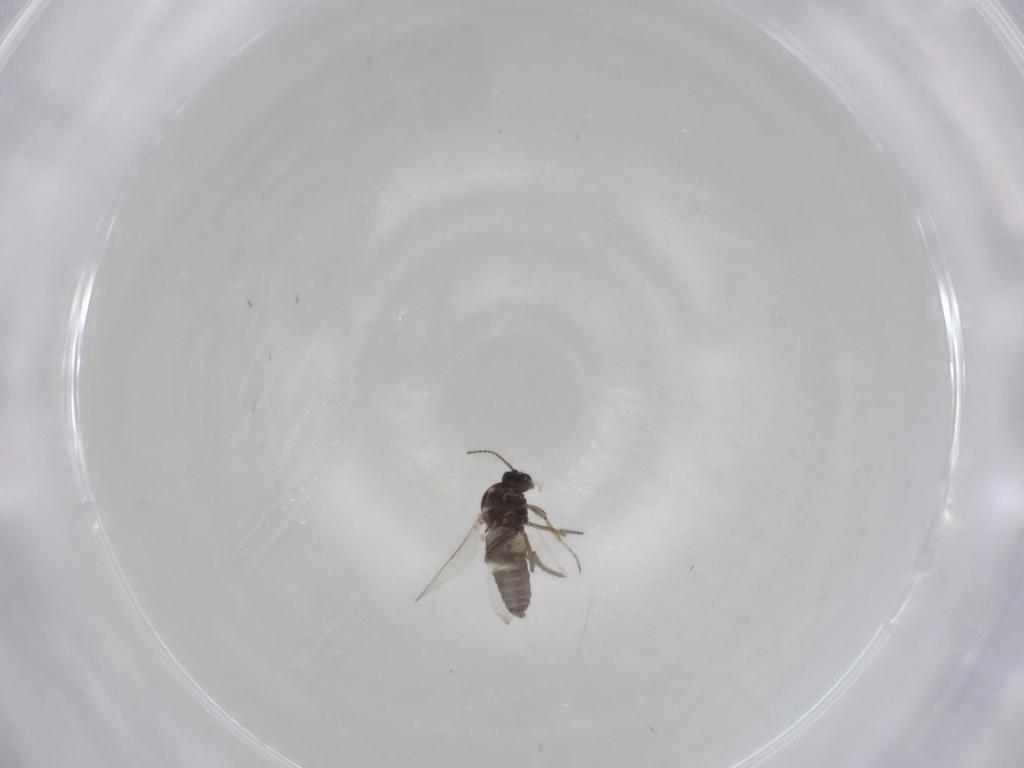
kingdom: Animalia
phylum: Arthropoda
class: Insecta
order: Diptera
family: Ceratopogonidae
